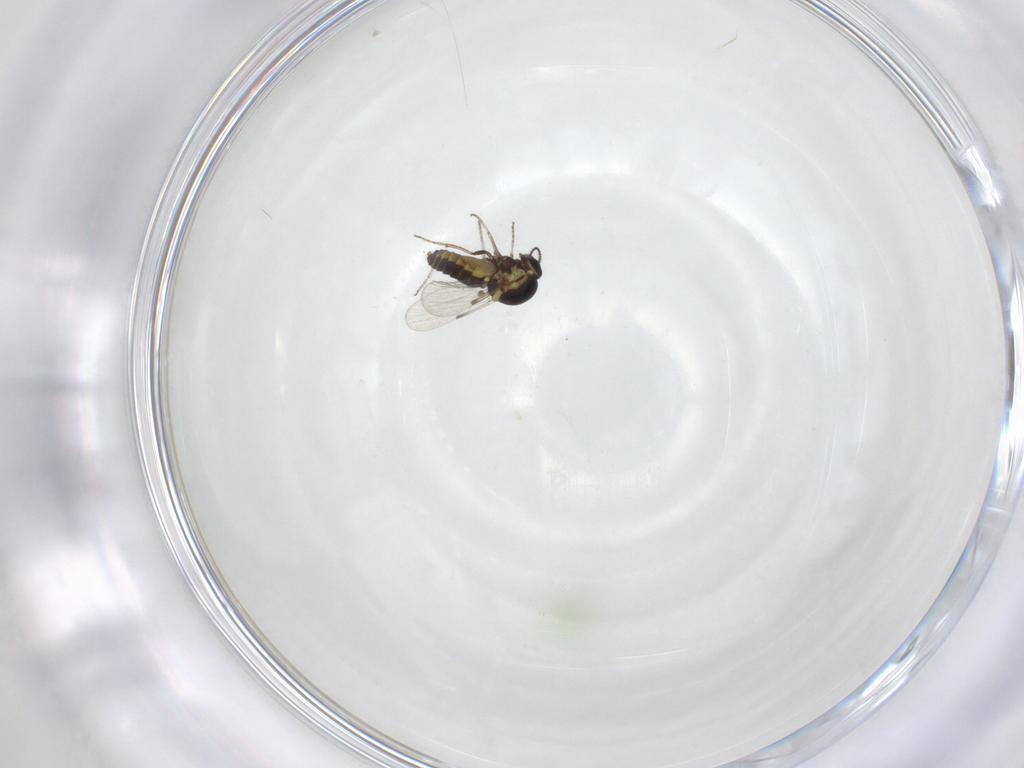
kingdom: Animalia
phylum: Arthropoda
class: Insecta
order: Diptera
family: Ceratopogonidae
